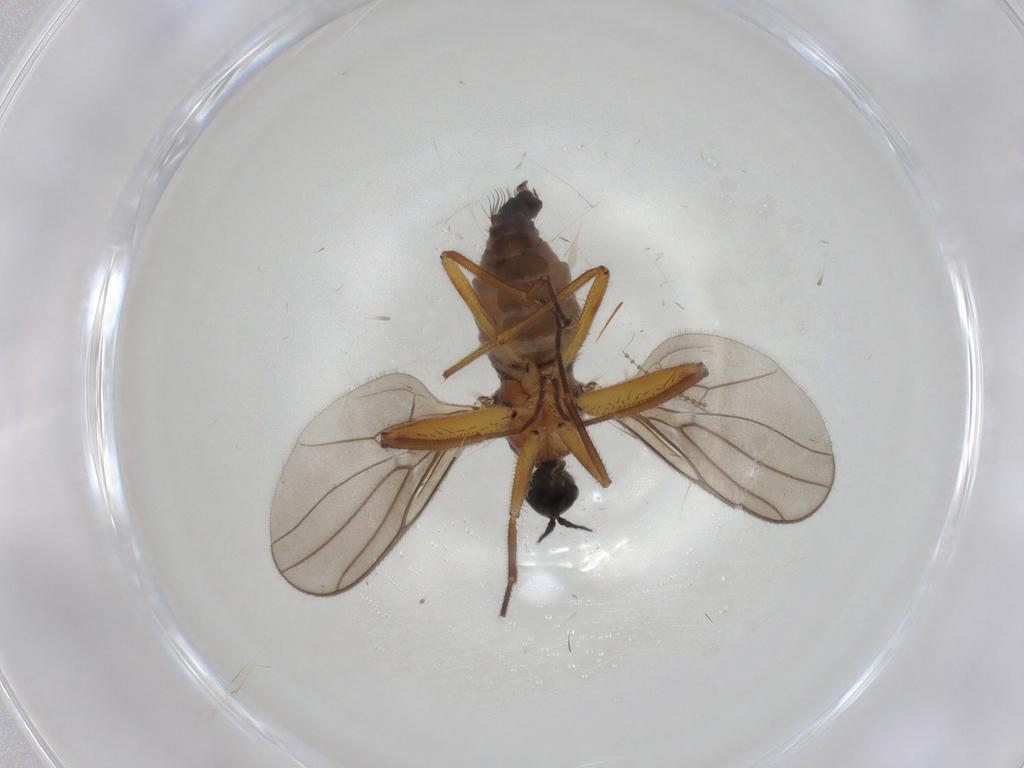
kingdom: Animalia
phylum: Arthropoda
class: Insecta
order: Diptera
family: Hybotidae
